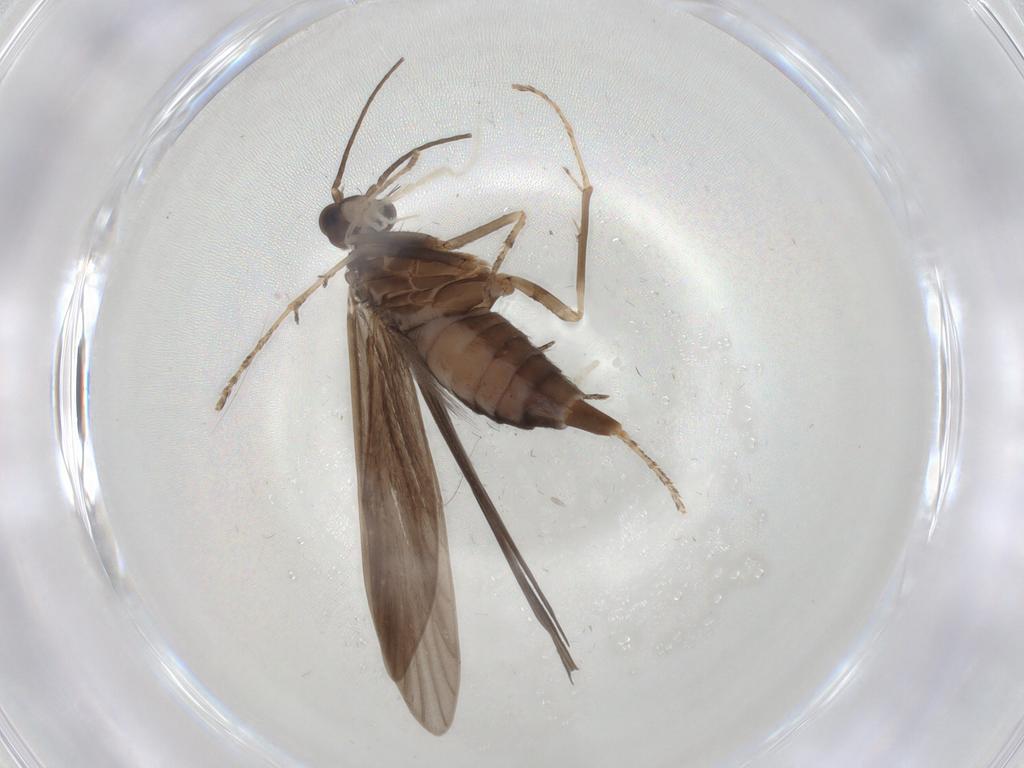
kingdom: Animalia
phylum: Arthropoda
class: Insecta
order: Trichoptera
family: Xiphocentronidae
